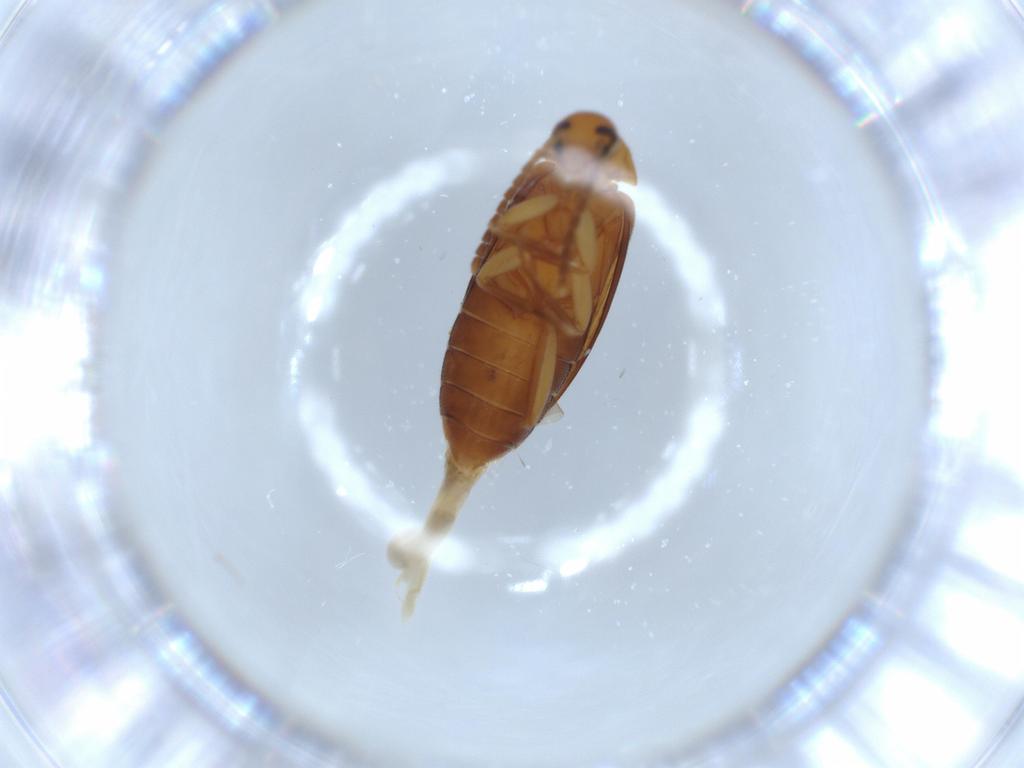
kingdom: Animalia
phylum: Arthropoda
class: Insecta
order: Coleoptera
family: Scraptiidae
